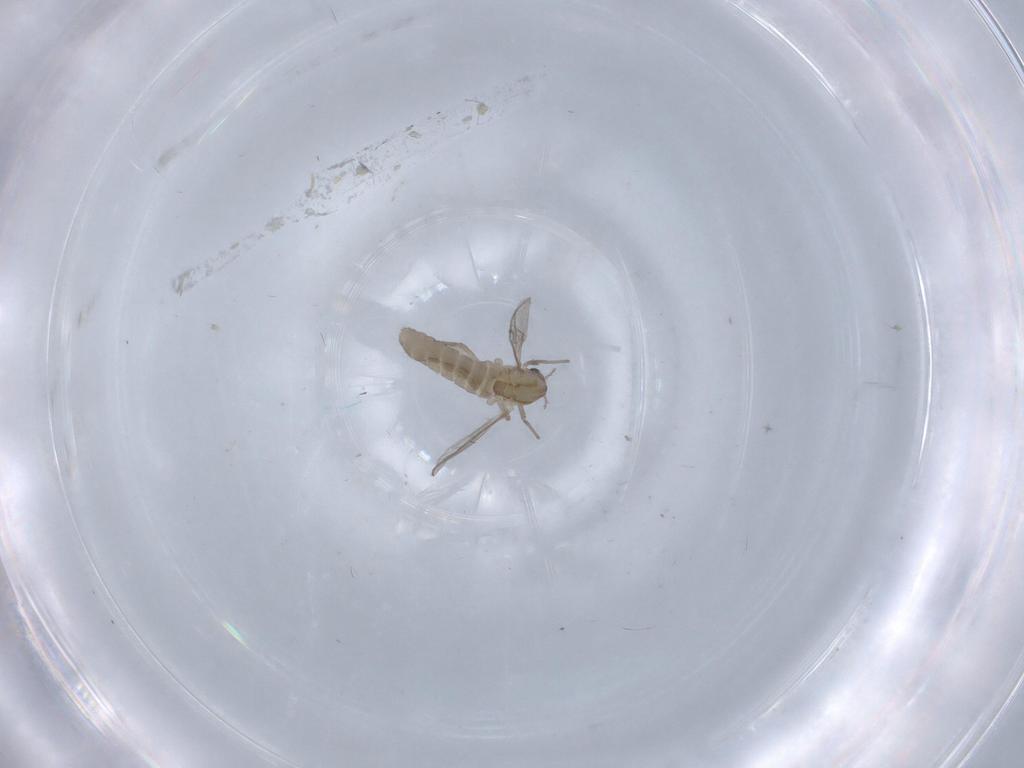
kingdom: Animalia
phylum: Arthropoda
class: Insecta
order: Diptera
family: Chironomidae
